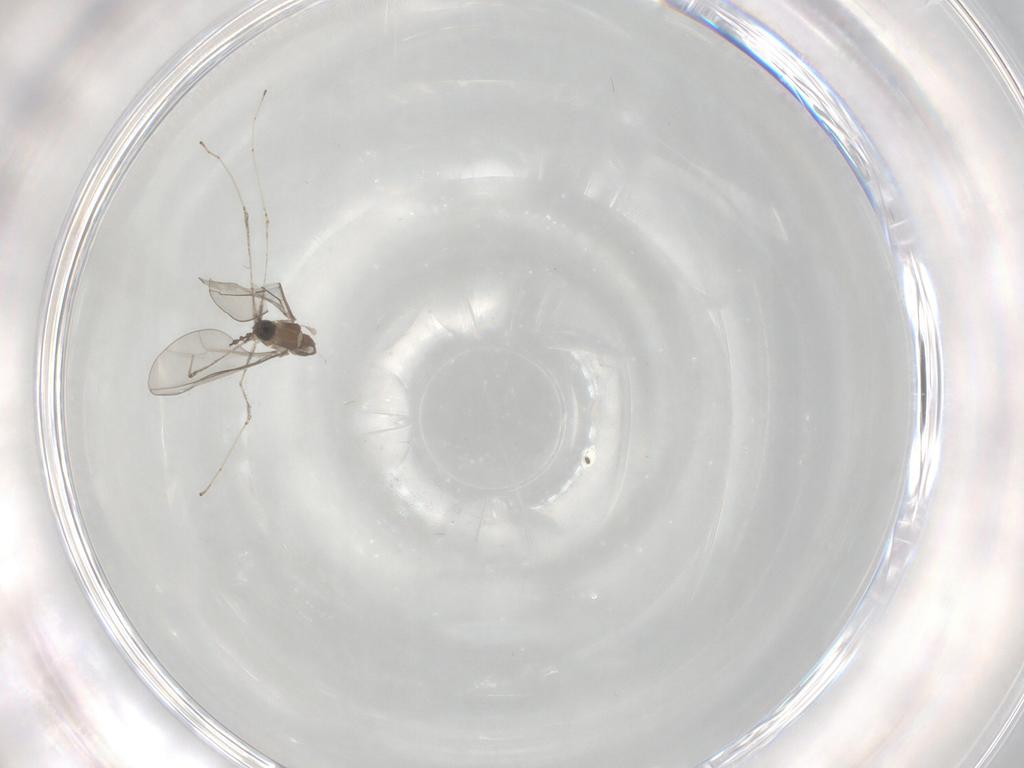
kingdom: Animalia
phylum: Arthropoda
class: Insecta
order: Diptera
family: Cecidomyiidae
